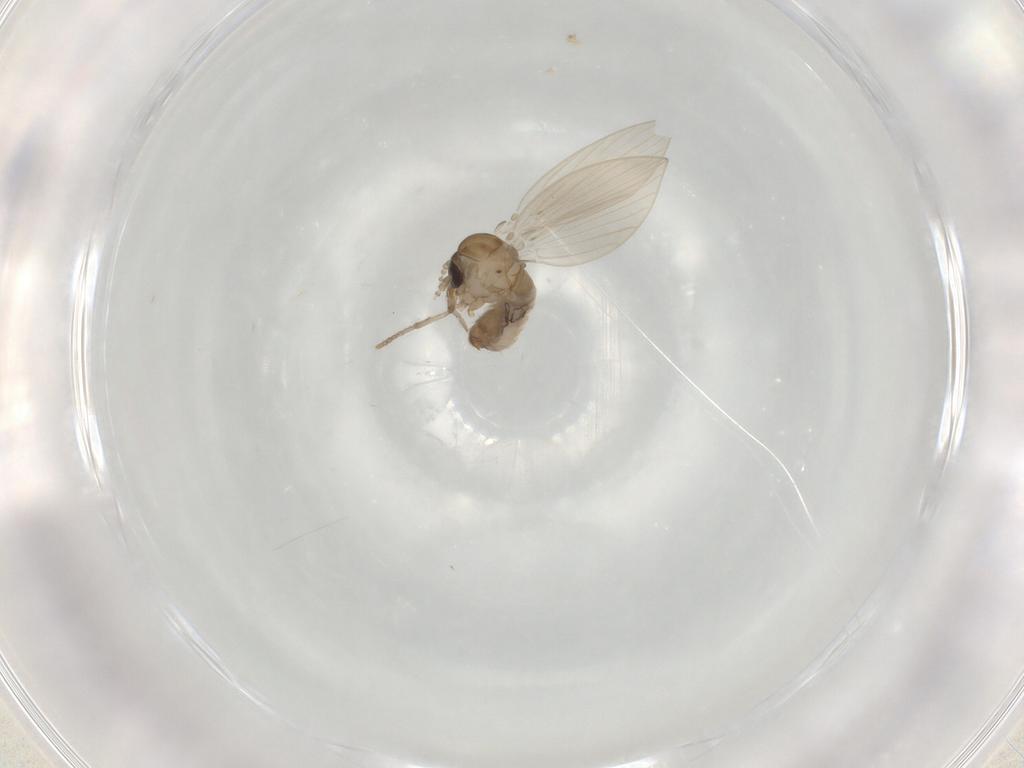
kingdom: Animalia
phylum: Arthropoda
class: Insecta
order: Diptera
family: Psychodidae
